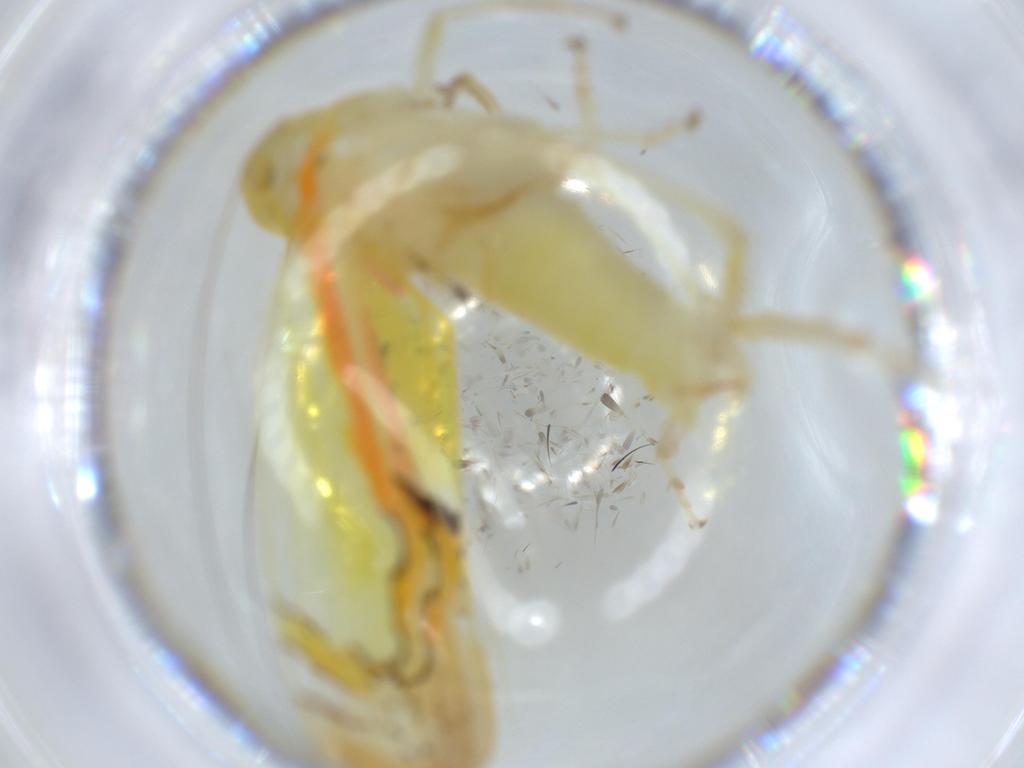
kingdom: Animalia
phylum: Arthropoda
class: Insecta
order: Hemiptera
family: Cicadellidae
